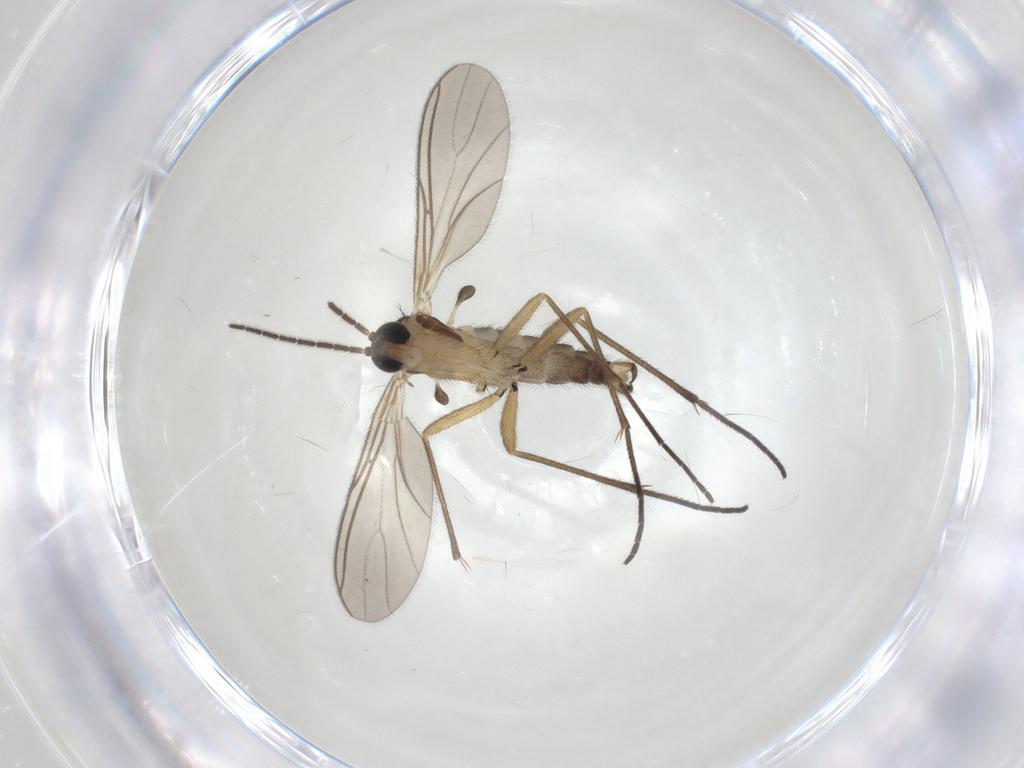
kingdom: Animalia
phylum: Arthropoda
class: Insecta
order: Diptera
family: Sciaridae
